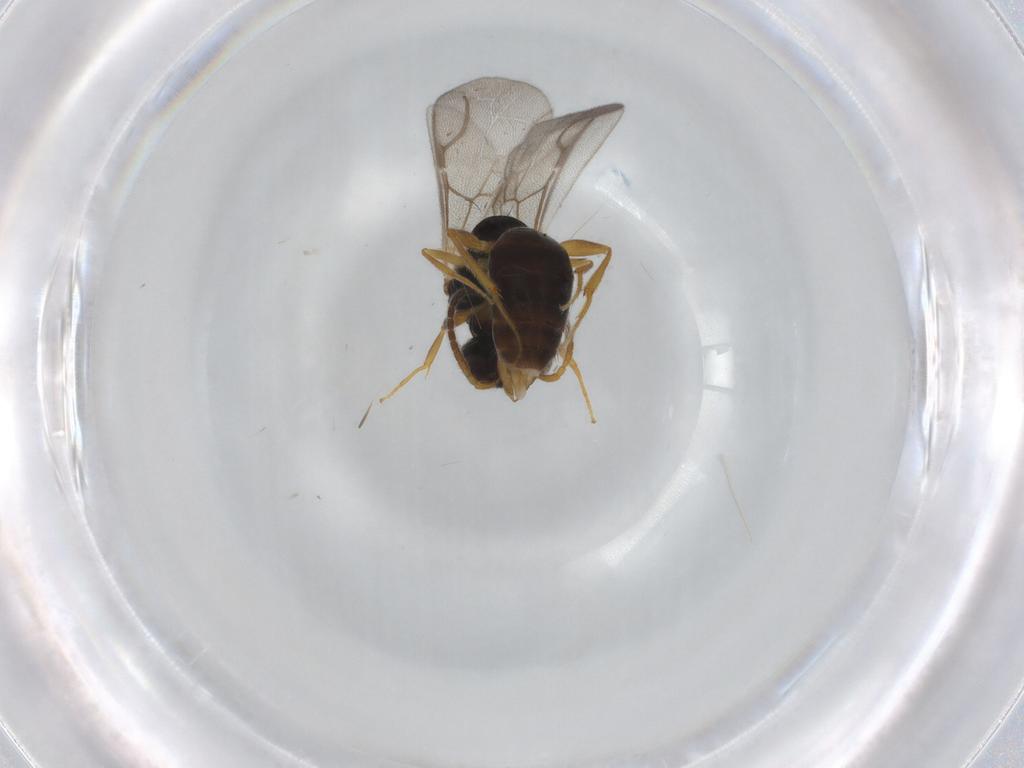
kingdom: Animalia
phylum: Arthropoda
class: Insecta
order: Hymenoptera
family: Bethylidae
